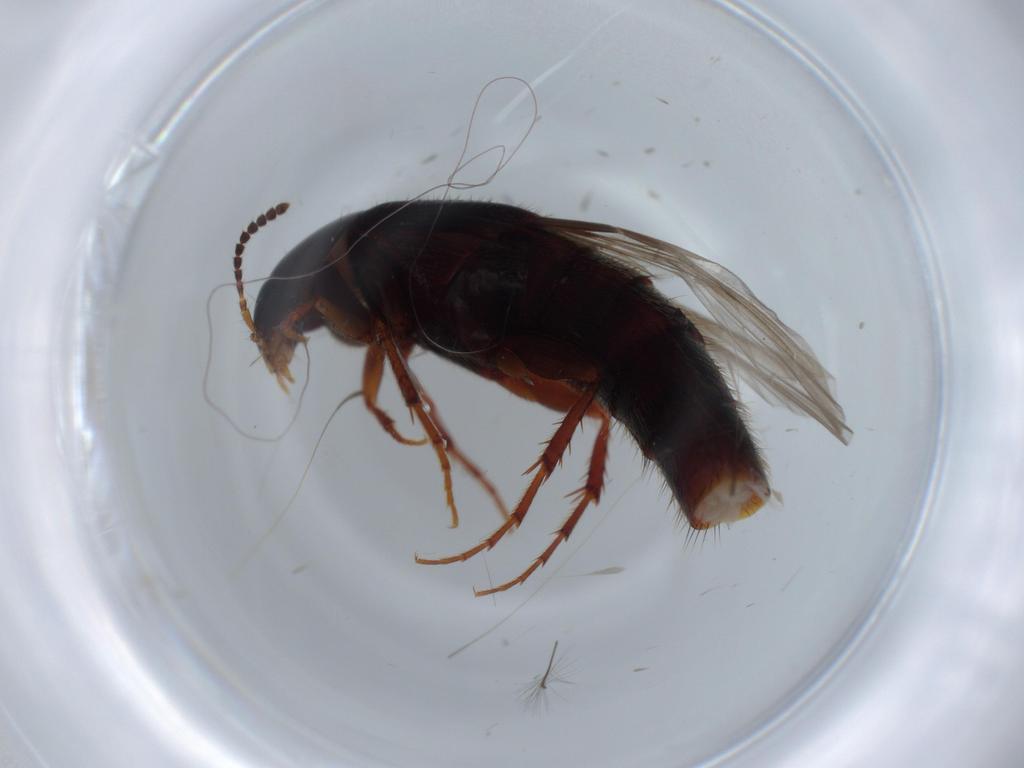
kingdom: Animalia
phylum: Arthropoda
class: Insecta
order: Coleoptera
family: Staphylinidae
